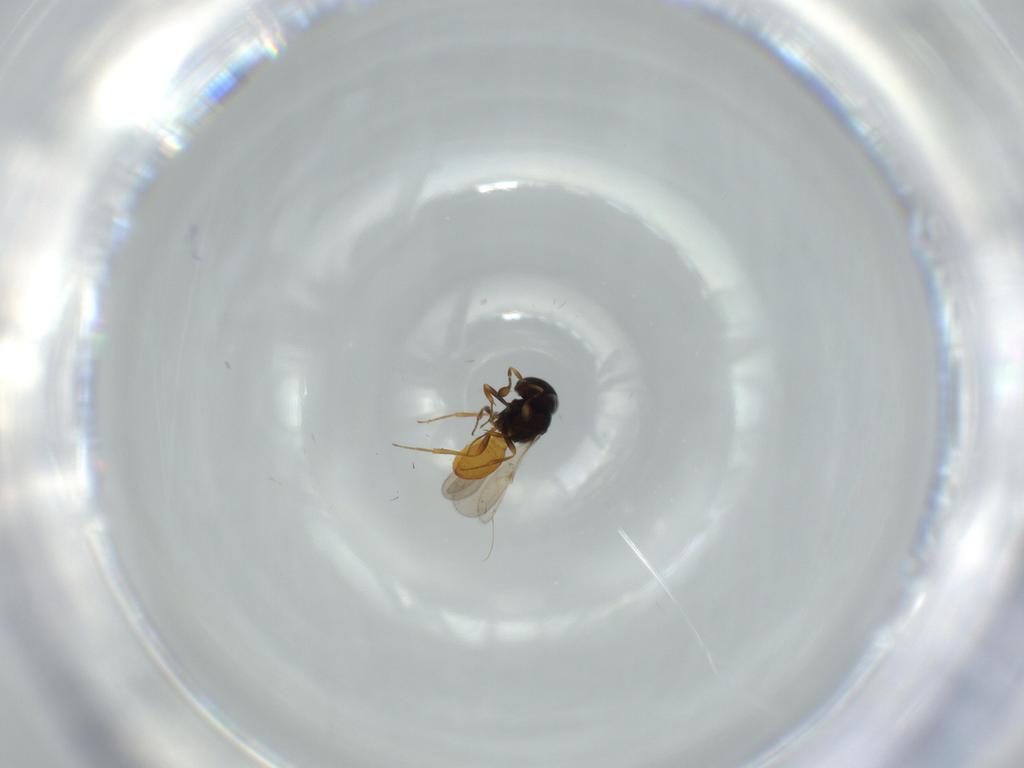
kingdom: Animalia
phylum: Arthropoda
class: Insecta
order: Hymenoptera
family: Scelionidae
